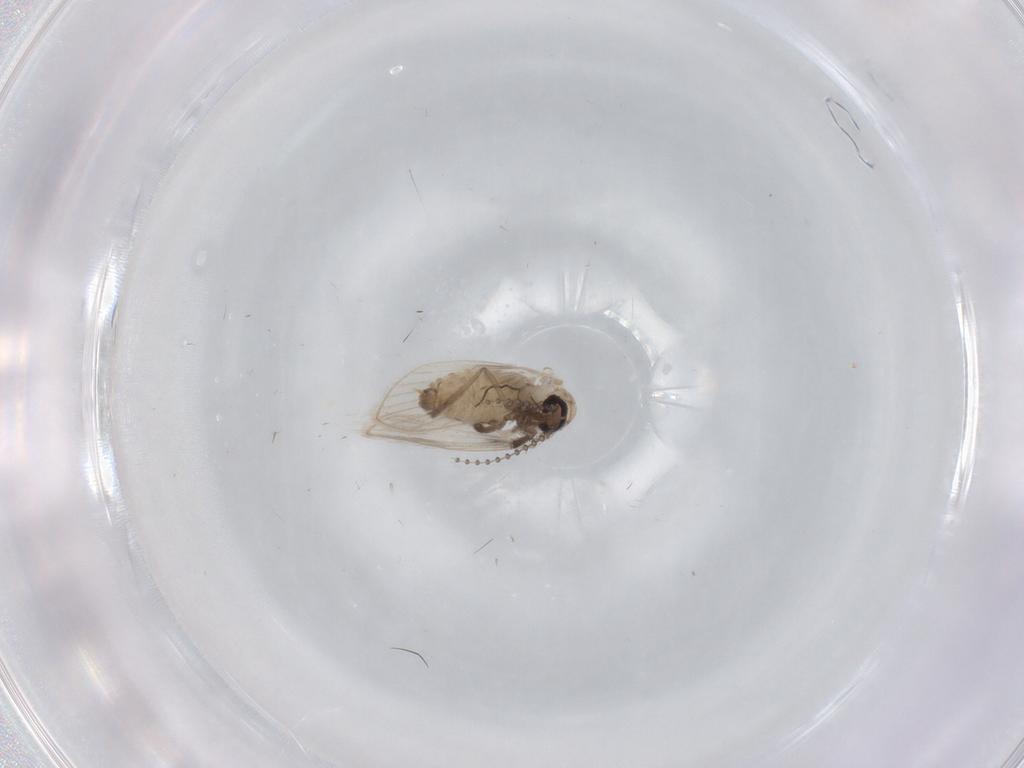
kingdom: Animalia
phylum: Arthropoda
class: Insecta
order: Diptera
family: Psychodidae
